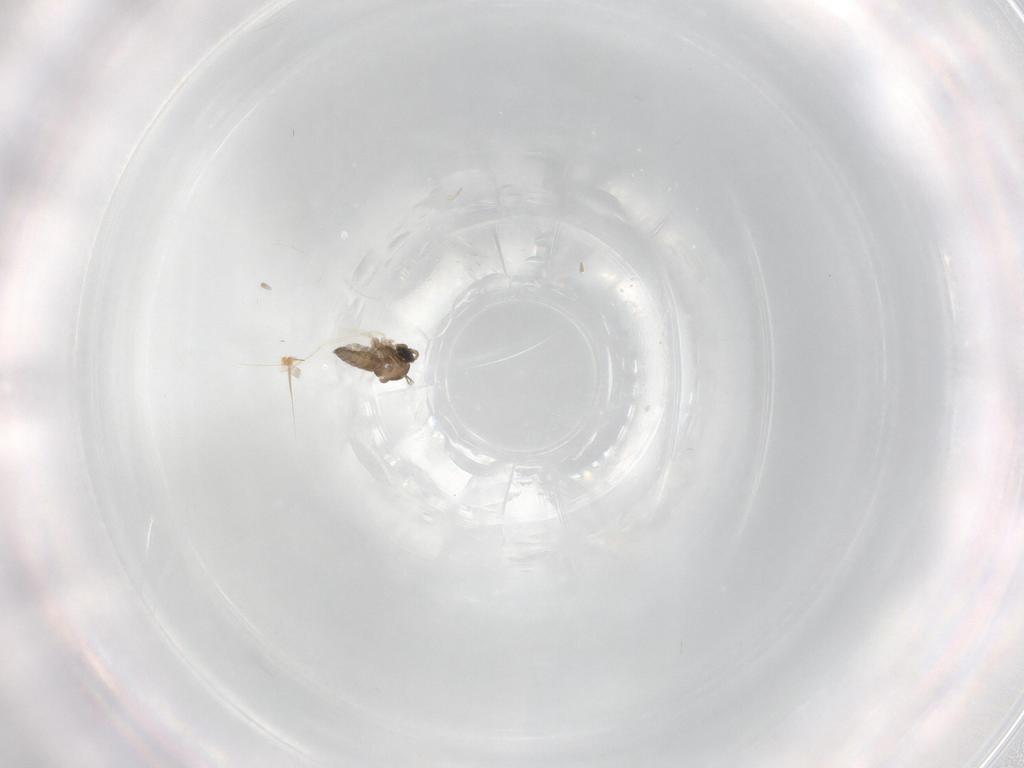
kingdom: Animalia
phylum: Arthropoda
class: Insecta
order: Diptera
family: Cecidomyiidae
